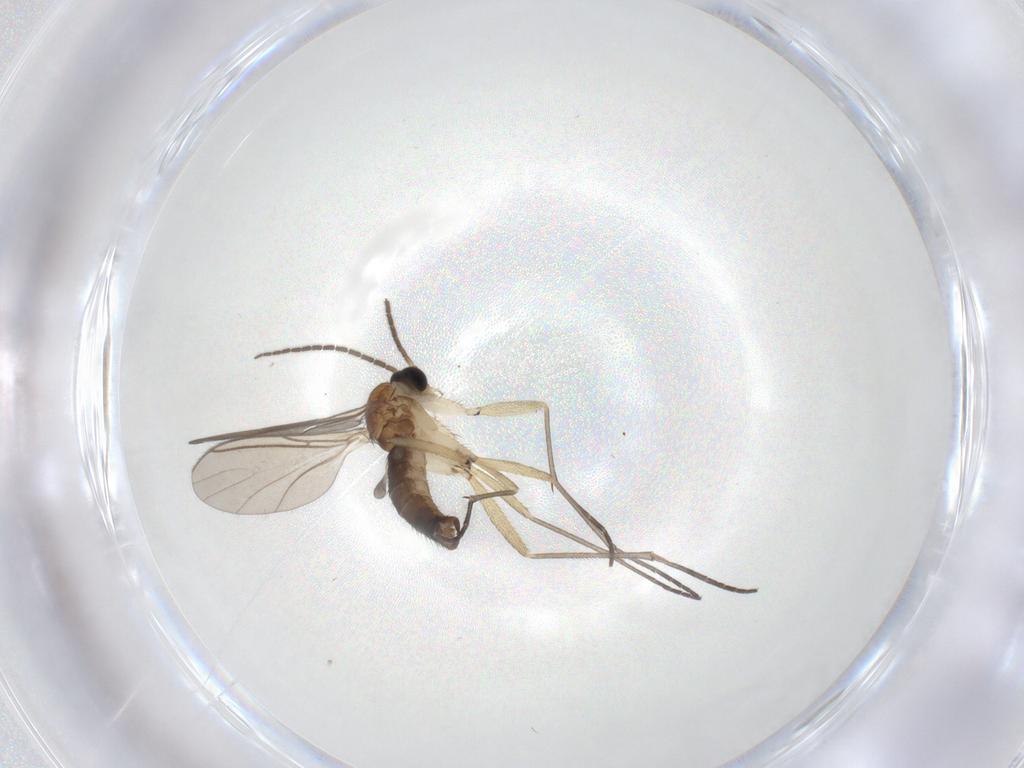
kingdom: Animalia
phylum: Arthropoda
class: Insecta
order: Diptera
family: Sciaridae
